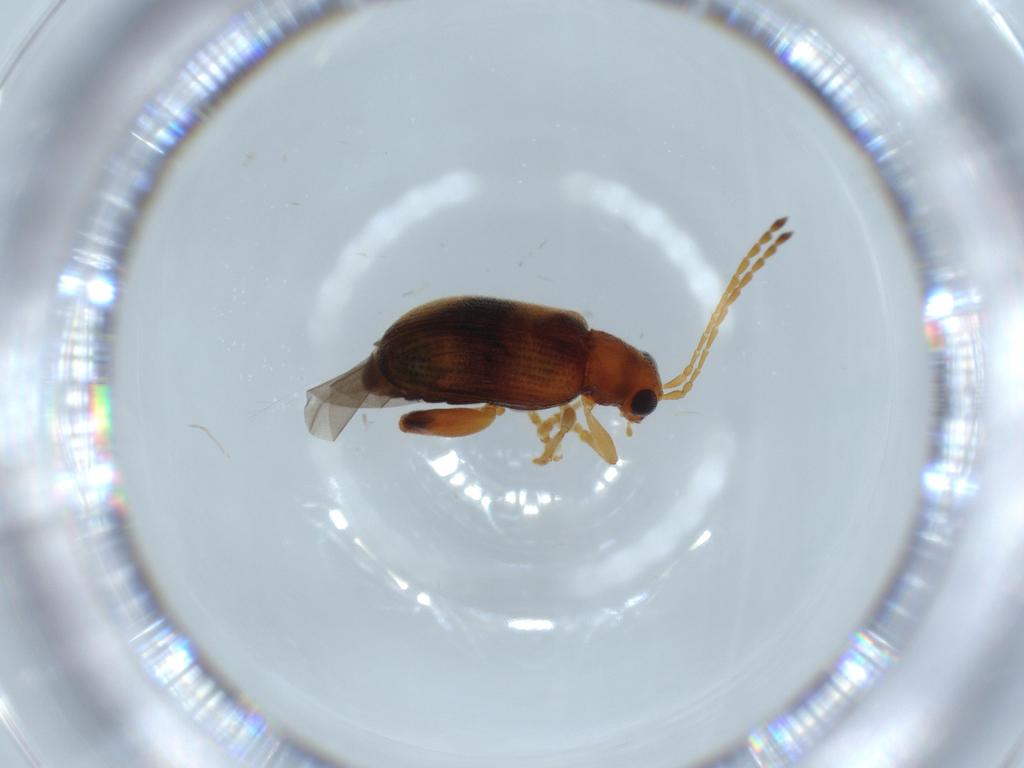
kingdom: Animalia
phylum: Arthropoda
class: Insecta
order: Coleoptera
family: Chrysomelidae
